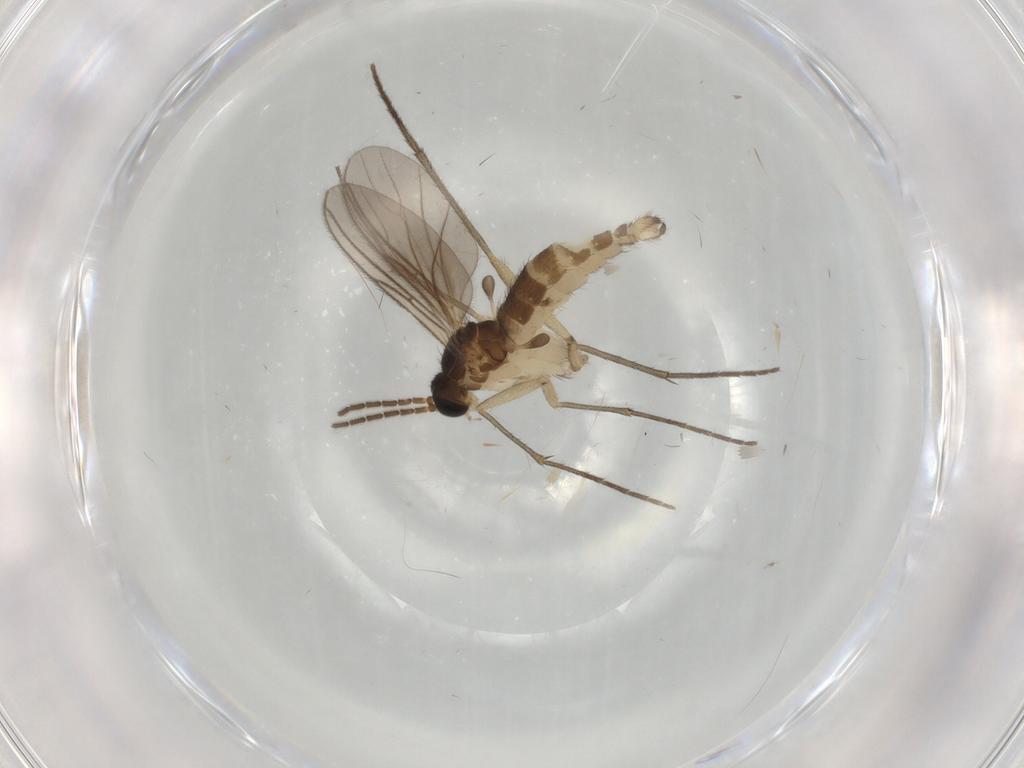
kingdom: Animalia
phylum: Arthropoda
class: Insecta
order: Diptera
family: Sciaridae
